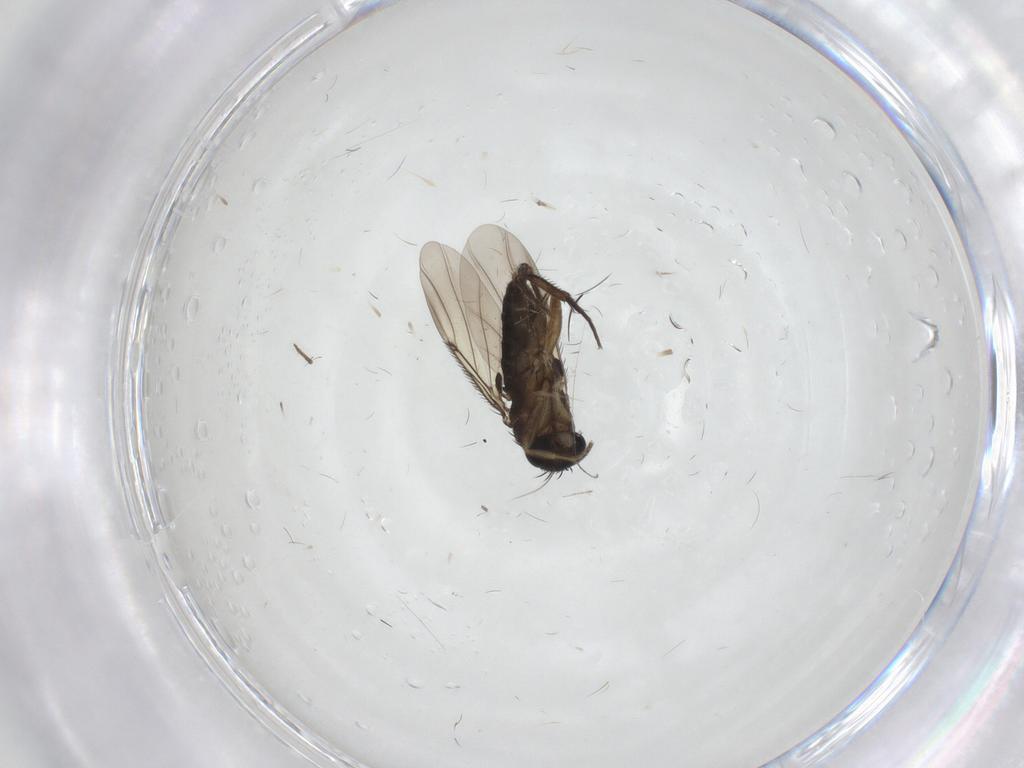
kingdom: Animalia
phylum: Arthropoda
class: Insecta
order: Diptera
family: Phoridae
